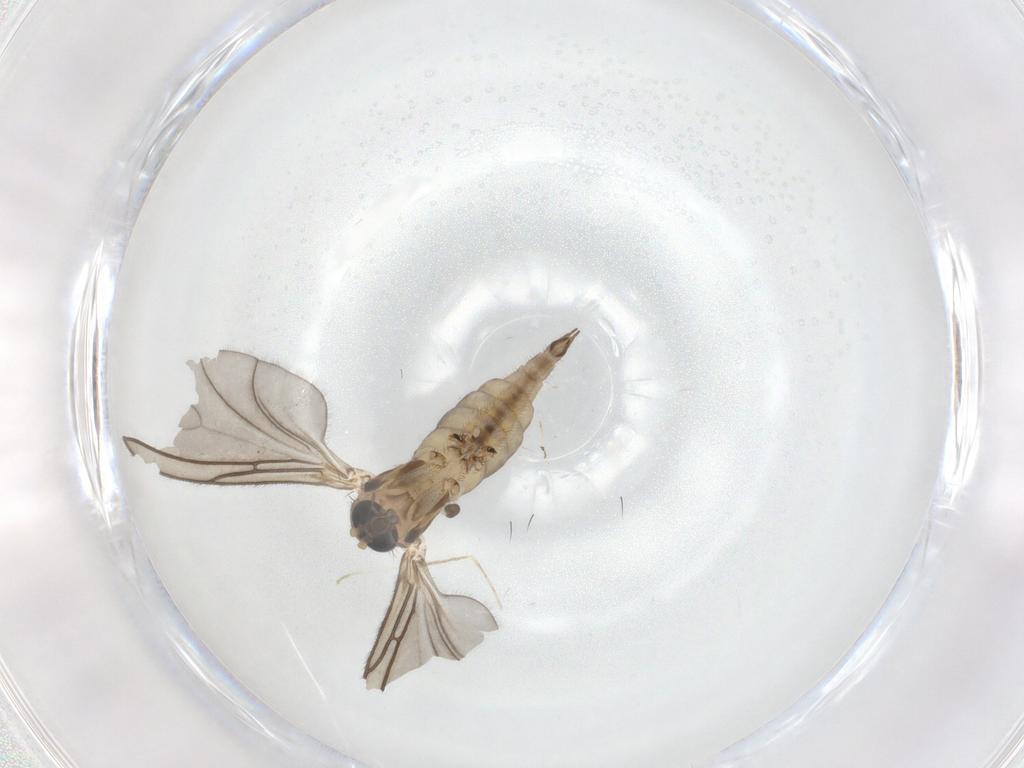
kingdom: Animalia
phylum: Arthropoda
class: Insecta
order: Diptera
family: Sciaridae
